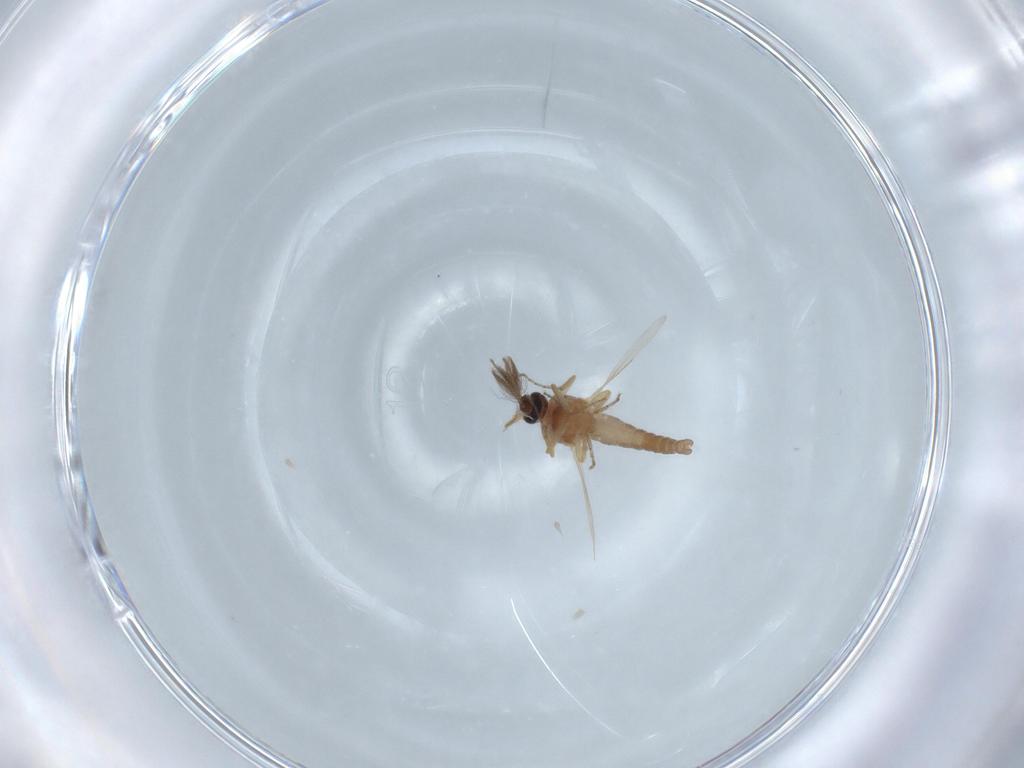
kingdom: Animalia
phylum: Arthropoda
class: Insecta
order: Diptera
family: Ceratopogonidae
